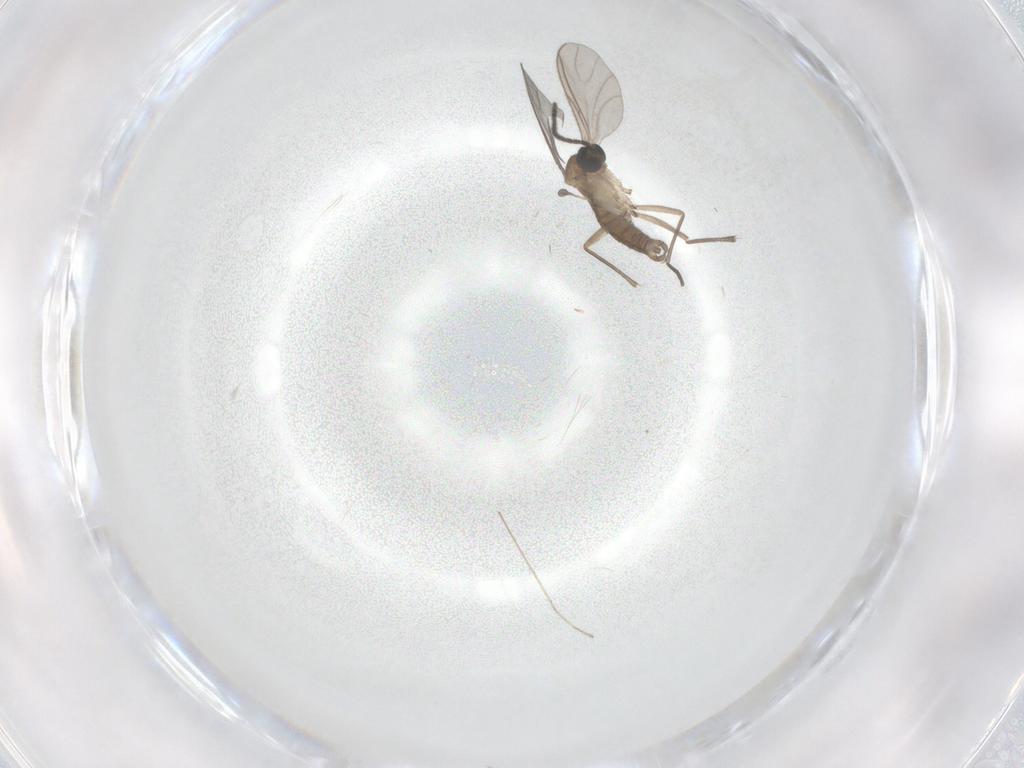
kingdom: Animalia
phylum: Arthropoda
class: Insecta
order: Diptera
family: Sciaridae
